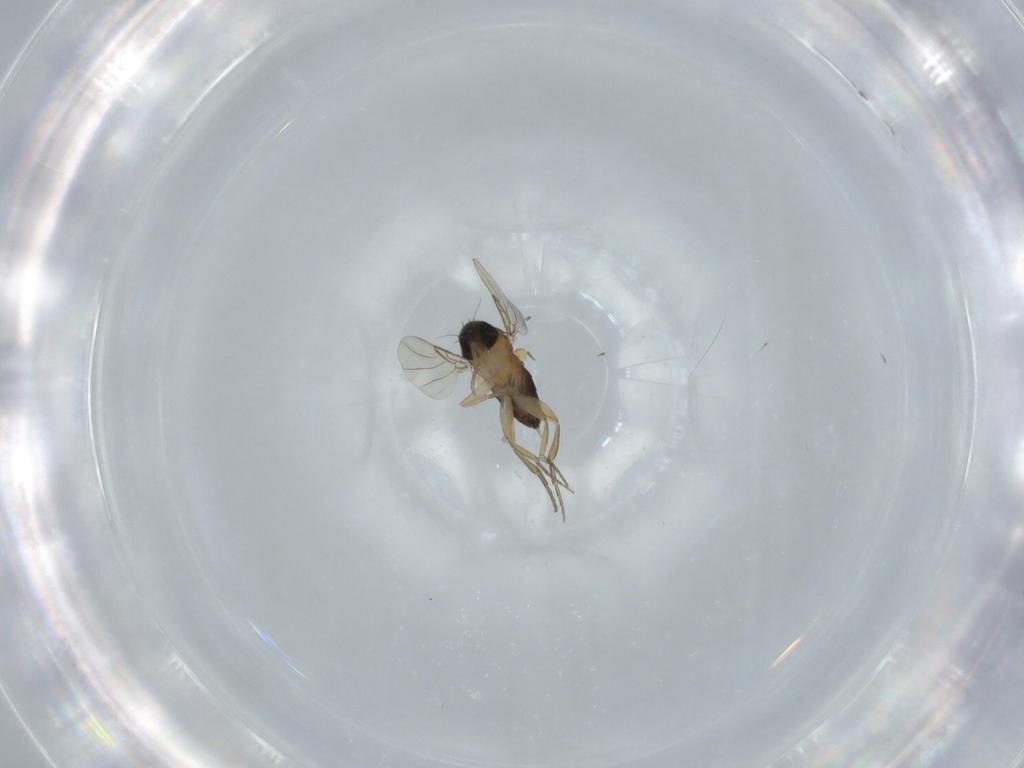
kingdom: Animalia
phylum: Arthropoda
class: Insecta
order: Diptera
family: Phoridae
